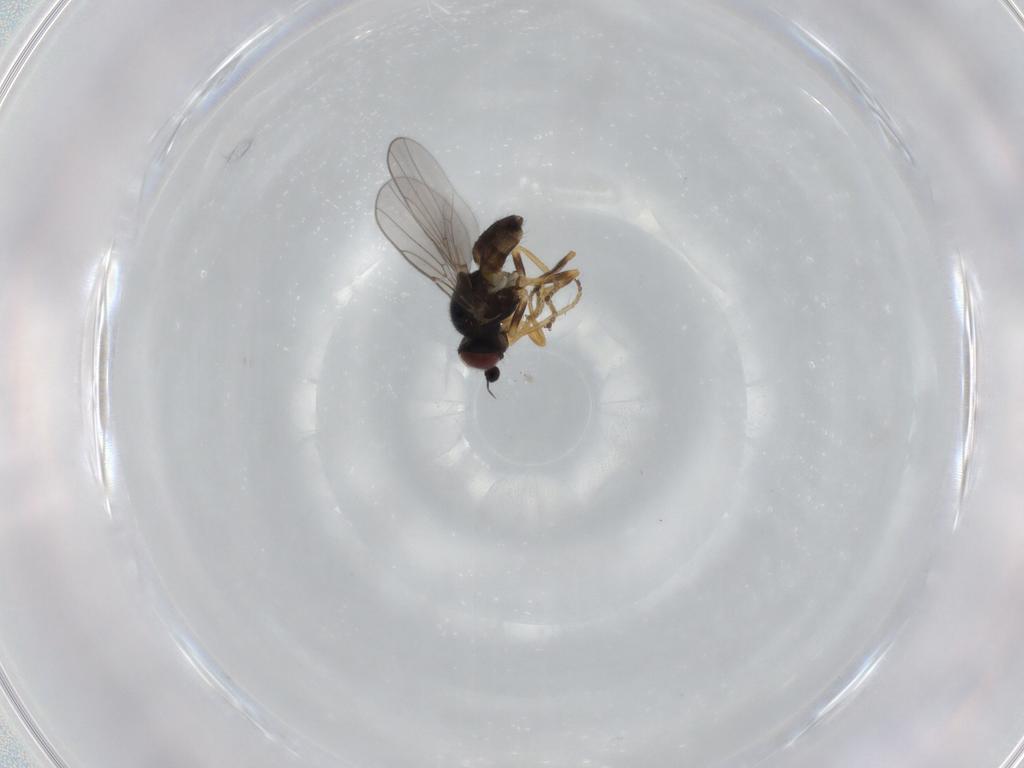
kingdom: Animalia
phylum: Arthropoda
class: Insecta
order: Diptera
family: Chloropidae
